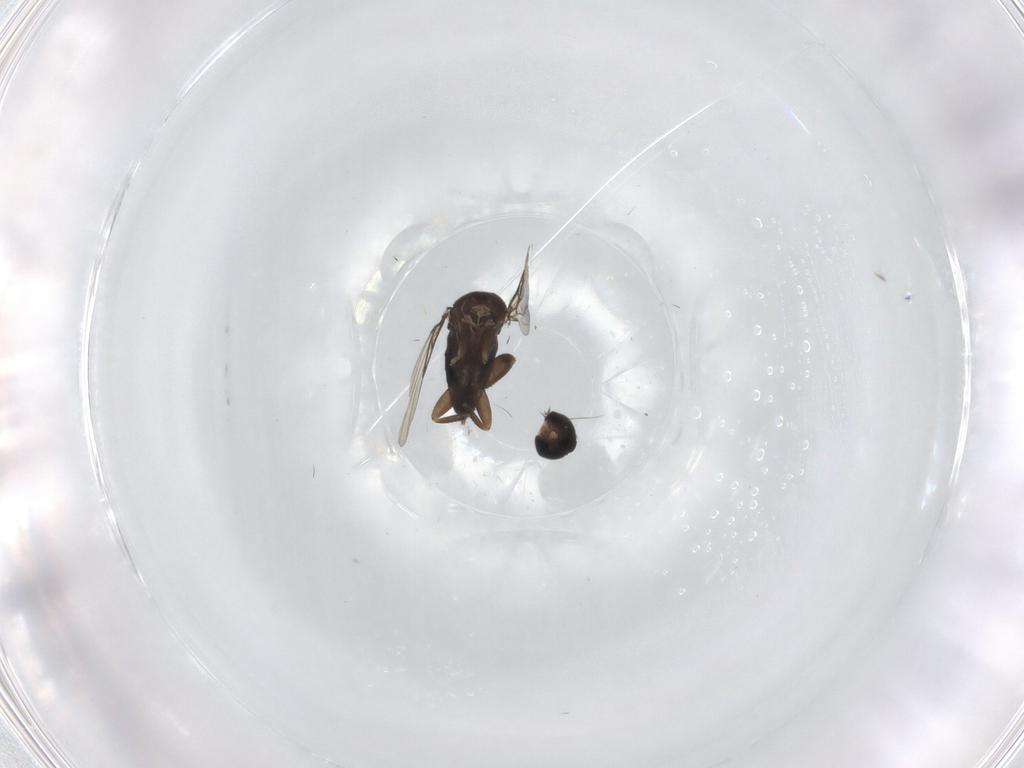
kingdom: Animalia
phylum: Arthropoda
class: Insecta
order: Diptera
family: Phoridae
